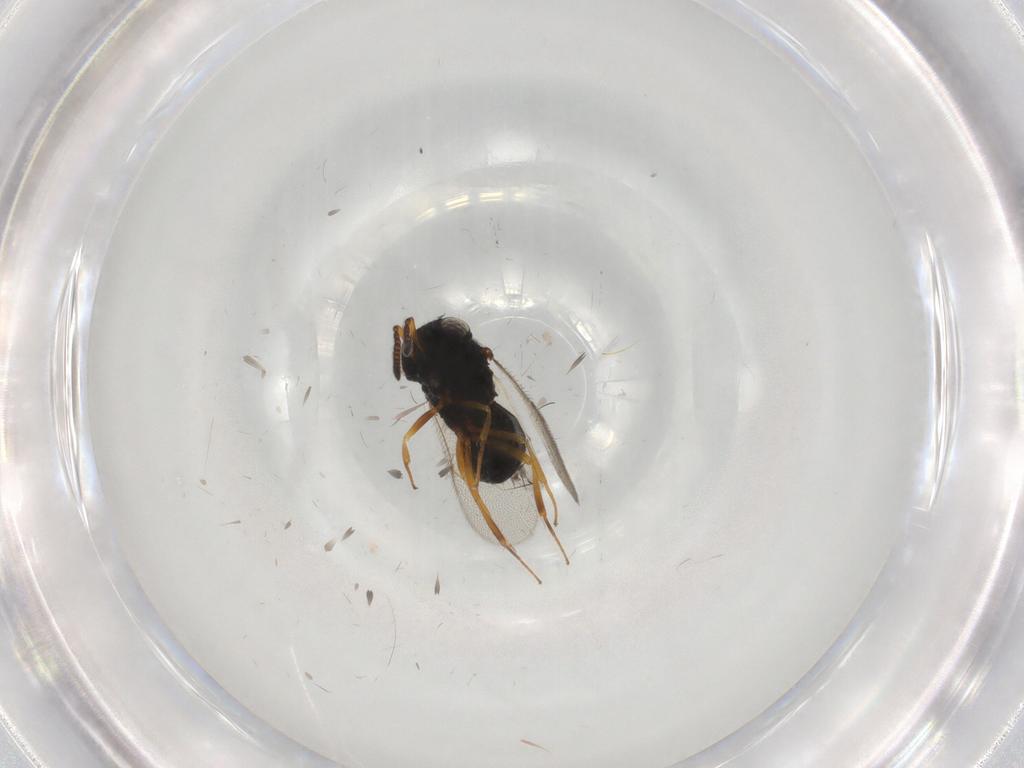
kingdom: Animalia
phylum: Arthropoda
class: Insecta
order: Hymenoptera
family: Scelionidae
